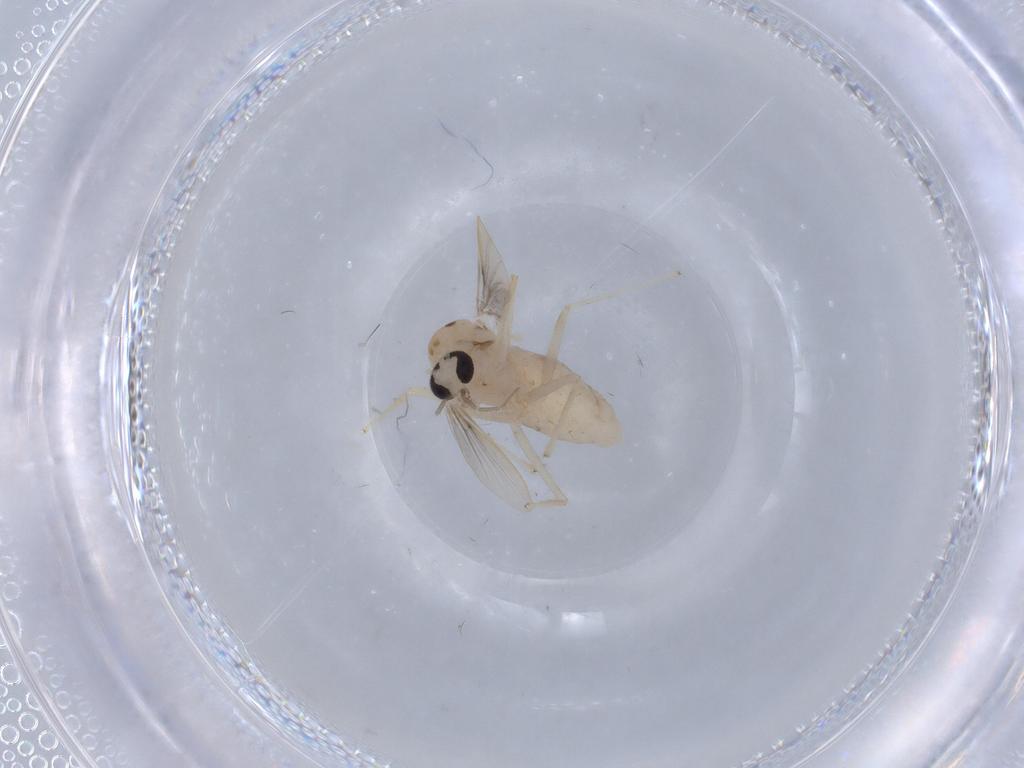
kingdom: Animalia
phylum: Arthropoda
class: Insecta
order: Diptera
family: Chironomidae
